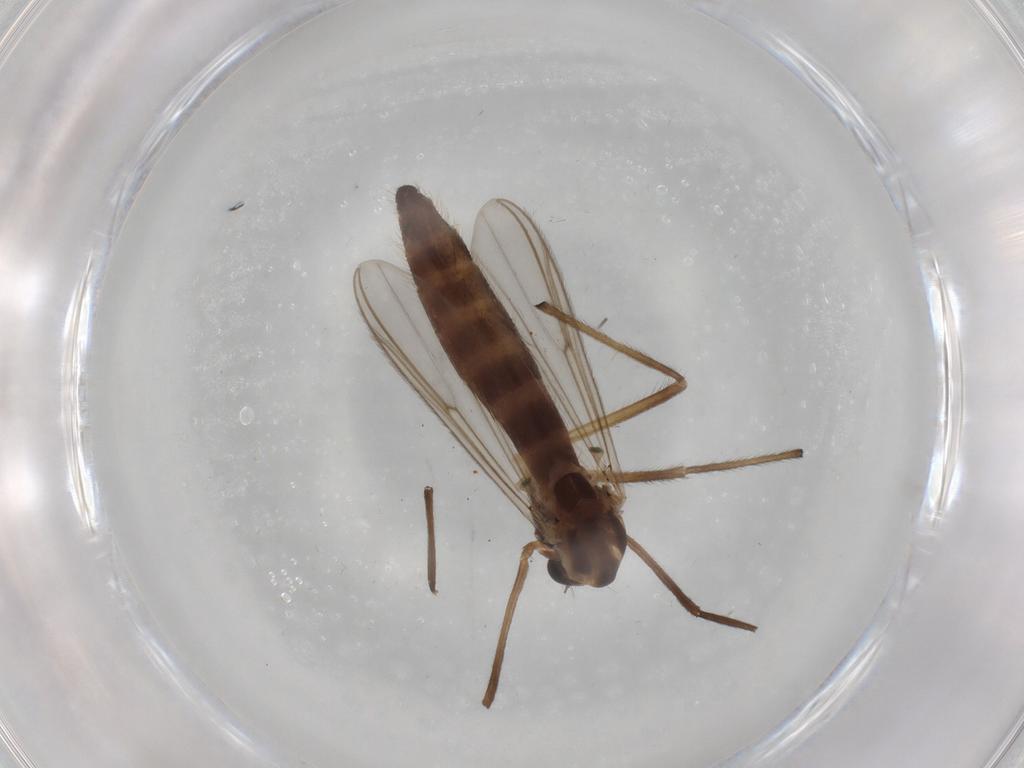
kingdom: Animalia
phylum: Arthropoda
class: Insecta
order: Diptera
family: Chironomidae
